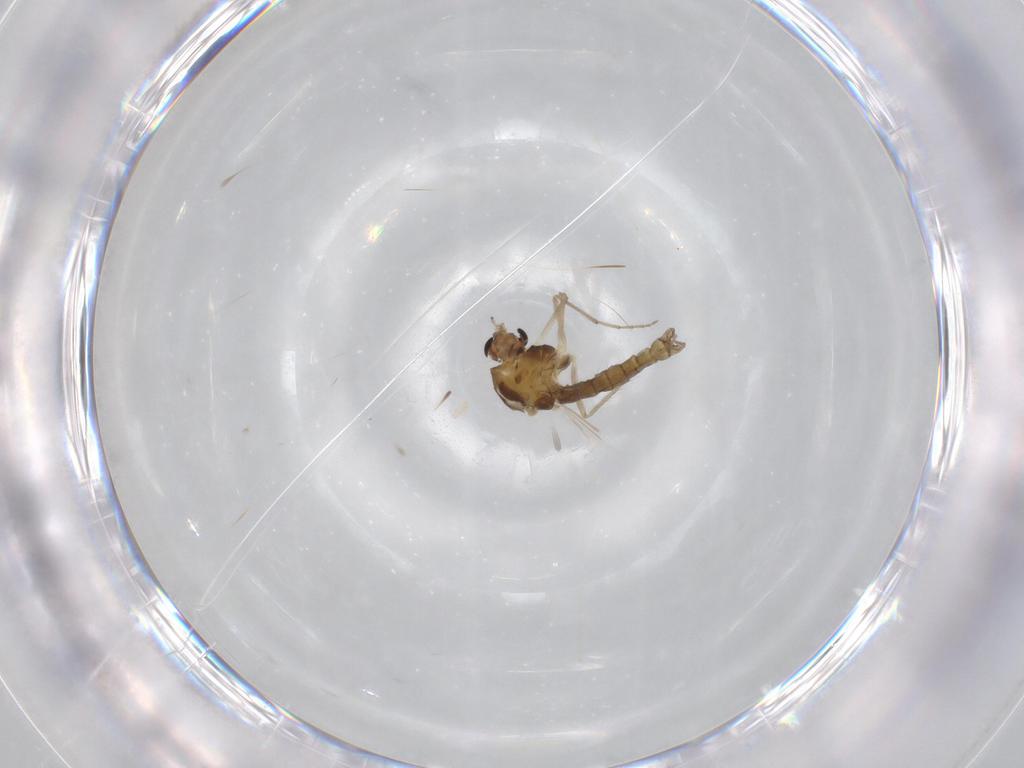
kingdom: Animalia
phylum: Arthropoda
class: Insecta
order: Diptera
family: Chironomidae
